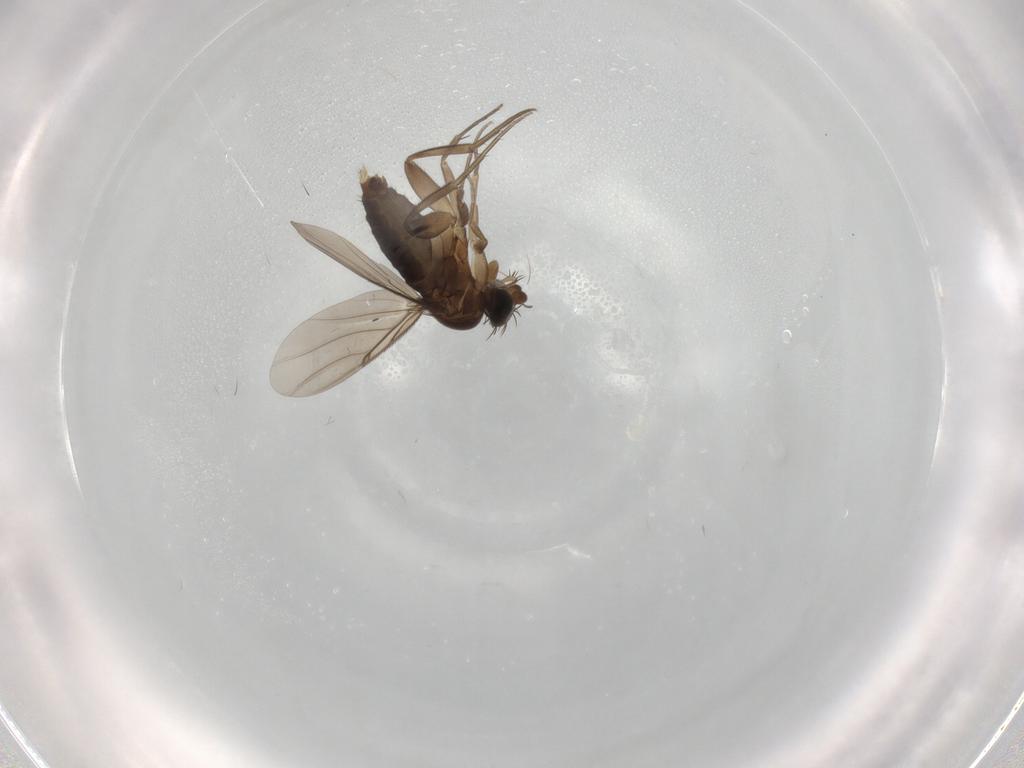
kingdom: Animalia
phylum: Arthropoda
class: Insecta
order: Diptera
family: Phoridae
